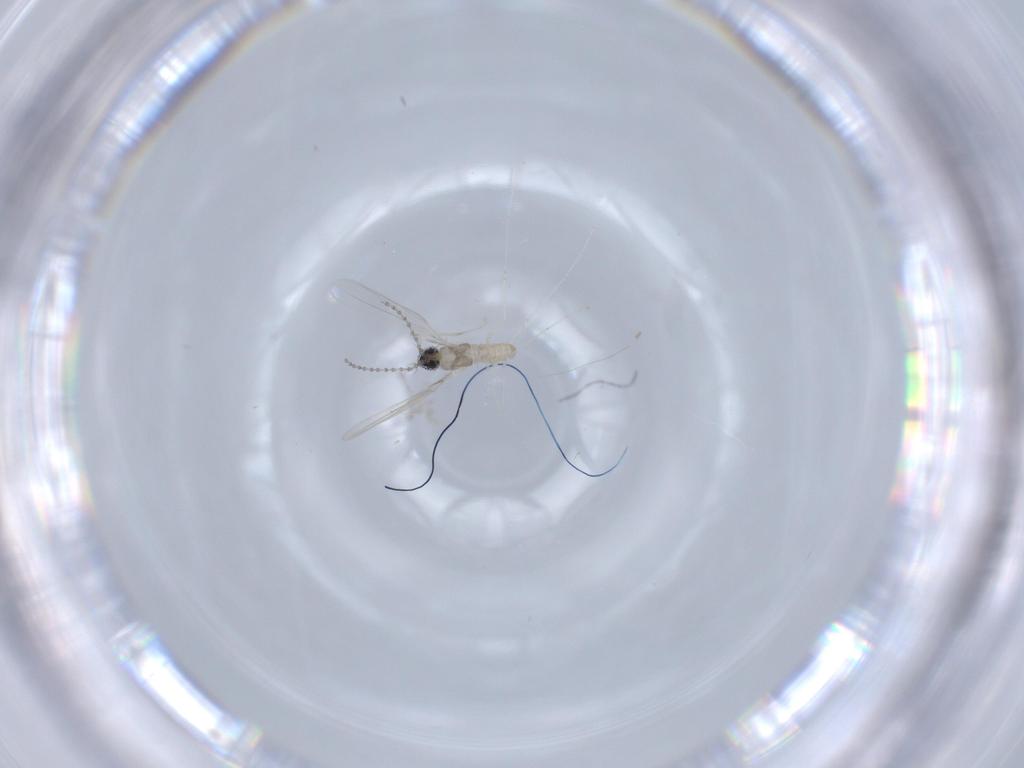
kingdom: Animalia
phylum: Arthropoda
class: Insecta
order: Diptera
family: Cecidomyiidae
